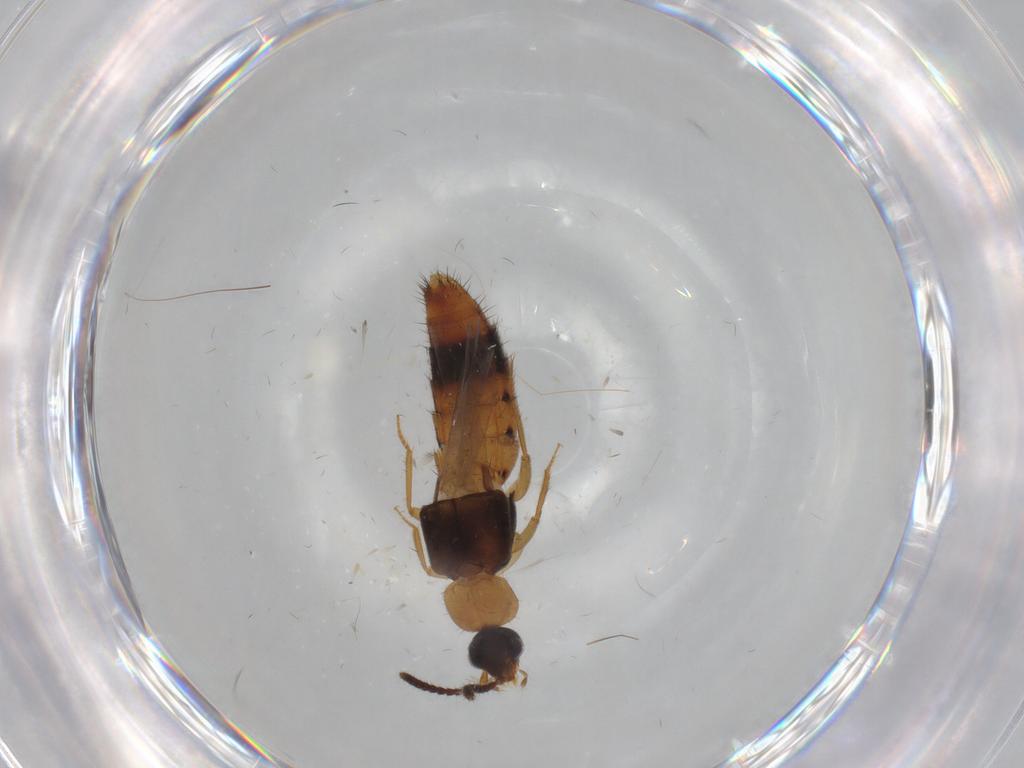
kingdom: Animalia
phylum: Arthropoda
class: Insecta
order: Coleoptera
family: Mordellidae
